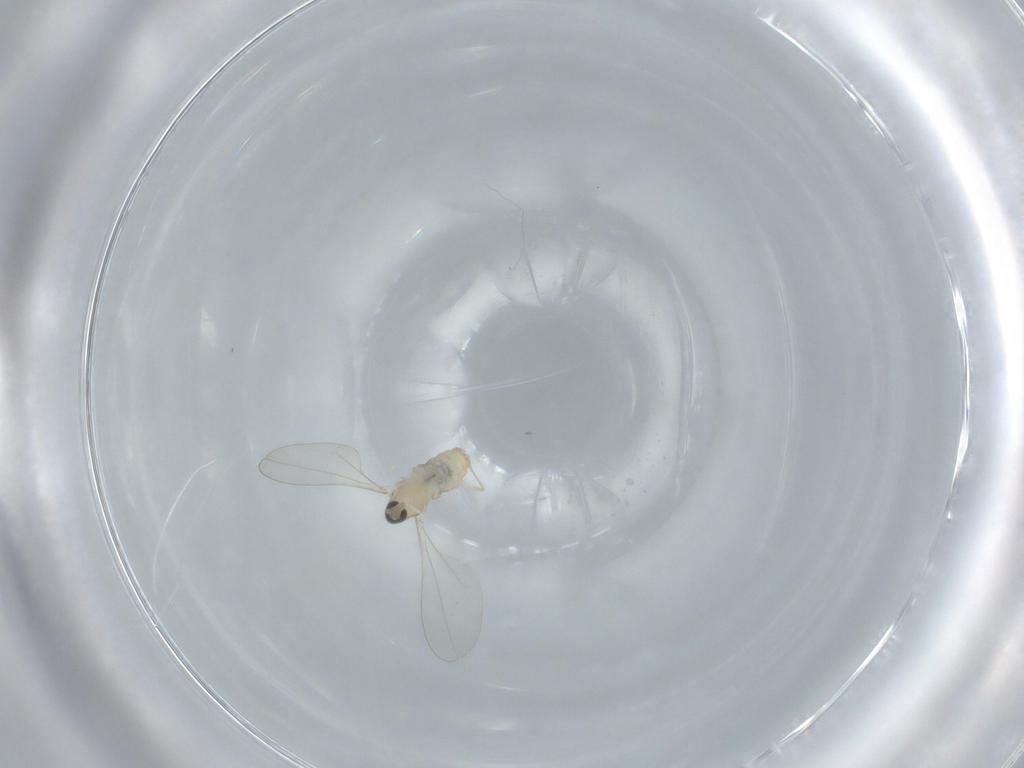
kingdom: Animalia
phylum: Arthropoda
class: Insecta
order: Diptera
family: Cecidomyiidae
